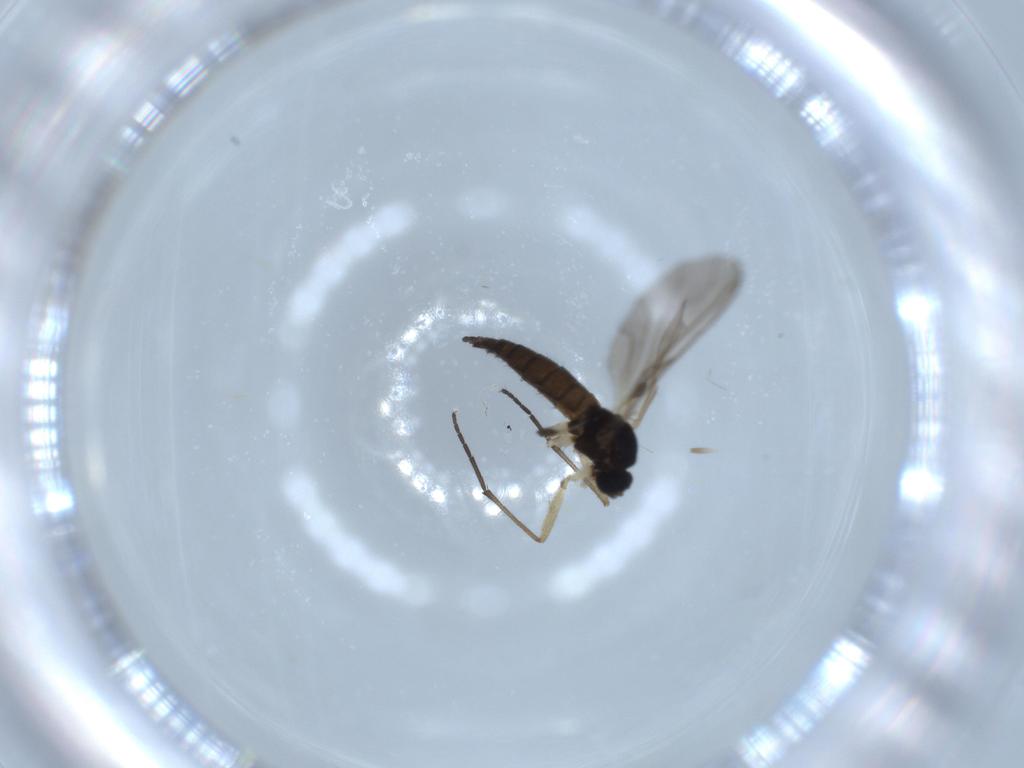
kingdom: Animalia
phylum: Arthropoda
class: Insecta
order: Diptera
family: Sciaridae
